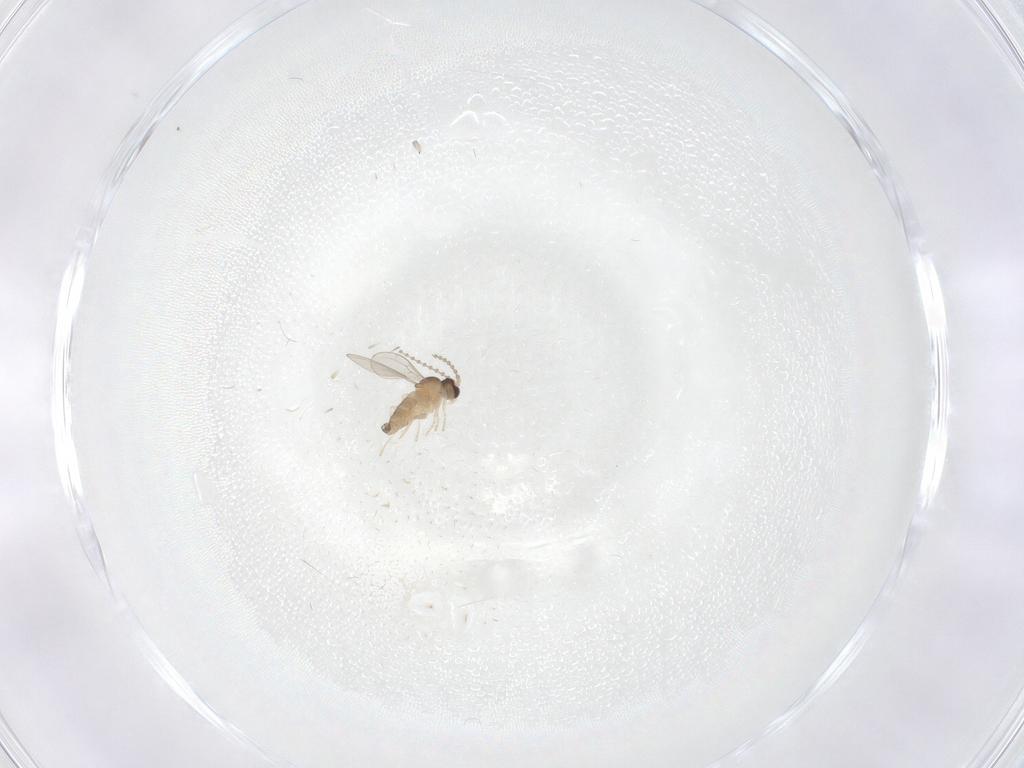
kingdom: Animalia
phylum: Arthropoda
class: Insecta
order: Diptera
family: Cecidomyiidae
